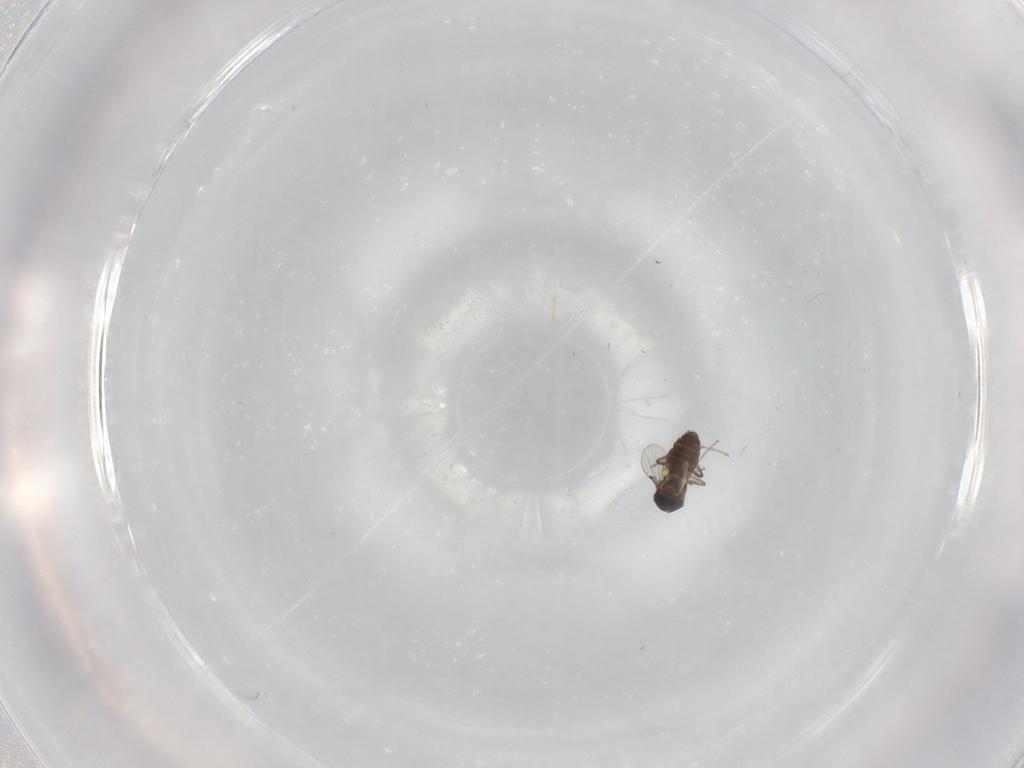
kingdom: Animalia
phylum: Arthropoda
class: Insecta
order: Diptera
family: Ceratopogonidae
